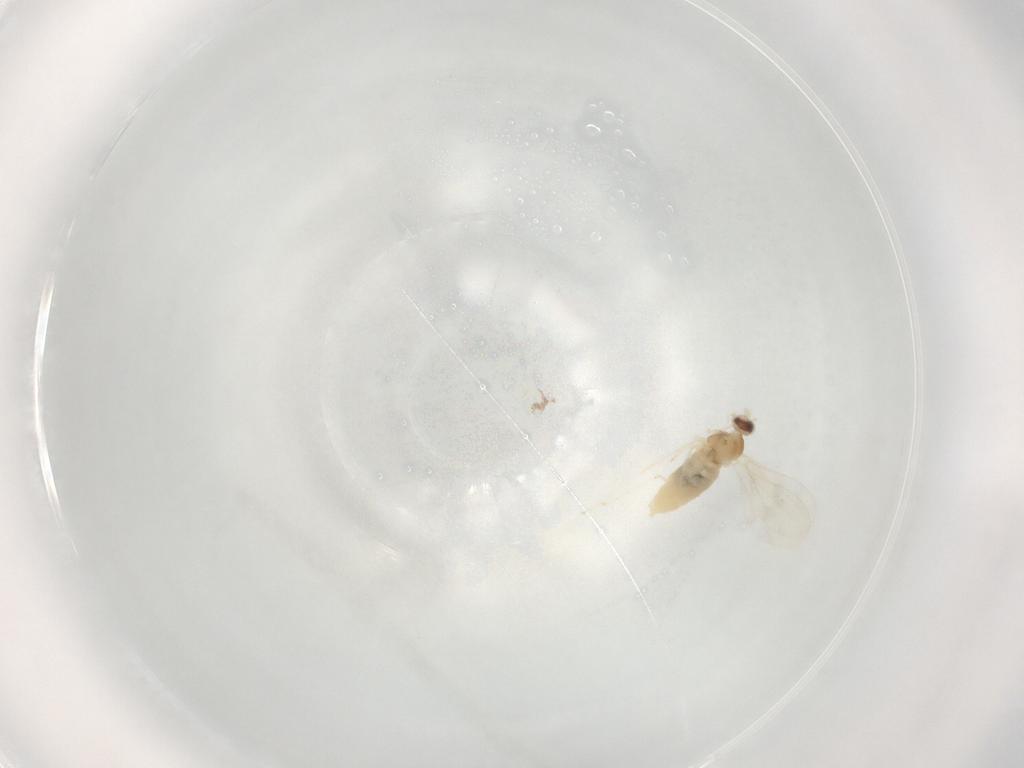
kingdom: Animalia
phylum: Arthropoda
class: Insecta
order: Diptera
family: Cecidomyiidae
